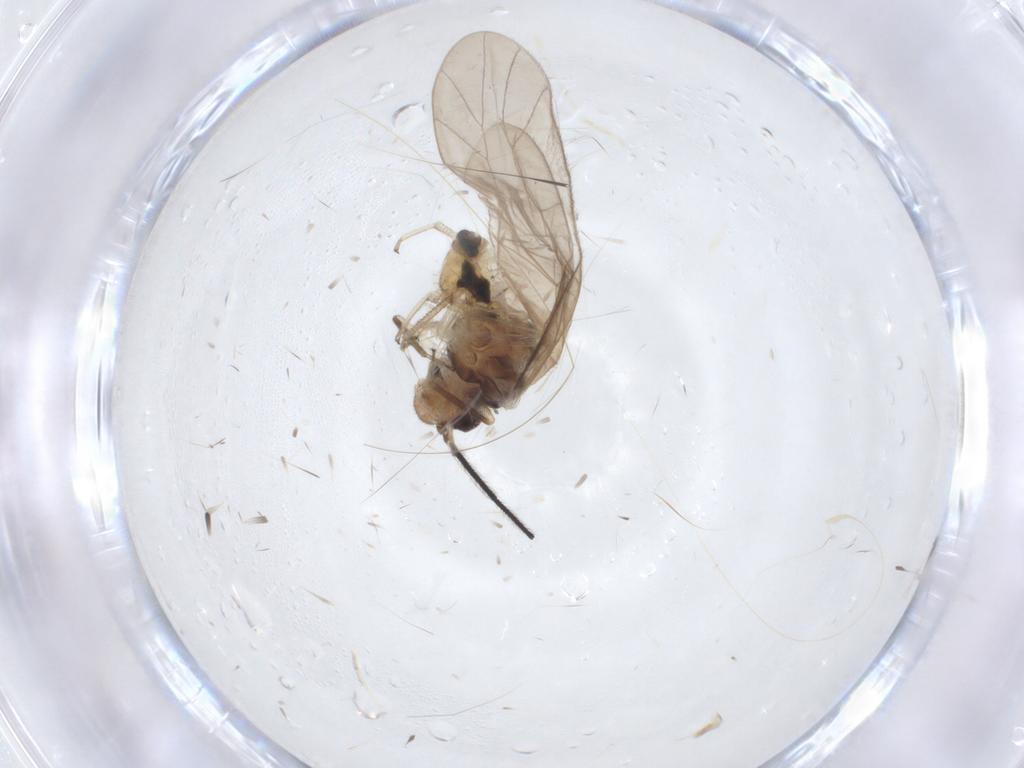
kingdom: Animalia
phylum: Arthropoda
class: Insecta
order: Psocodea
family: Caeciliusidae
